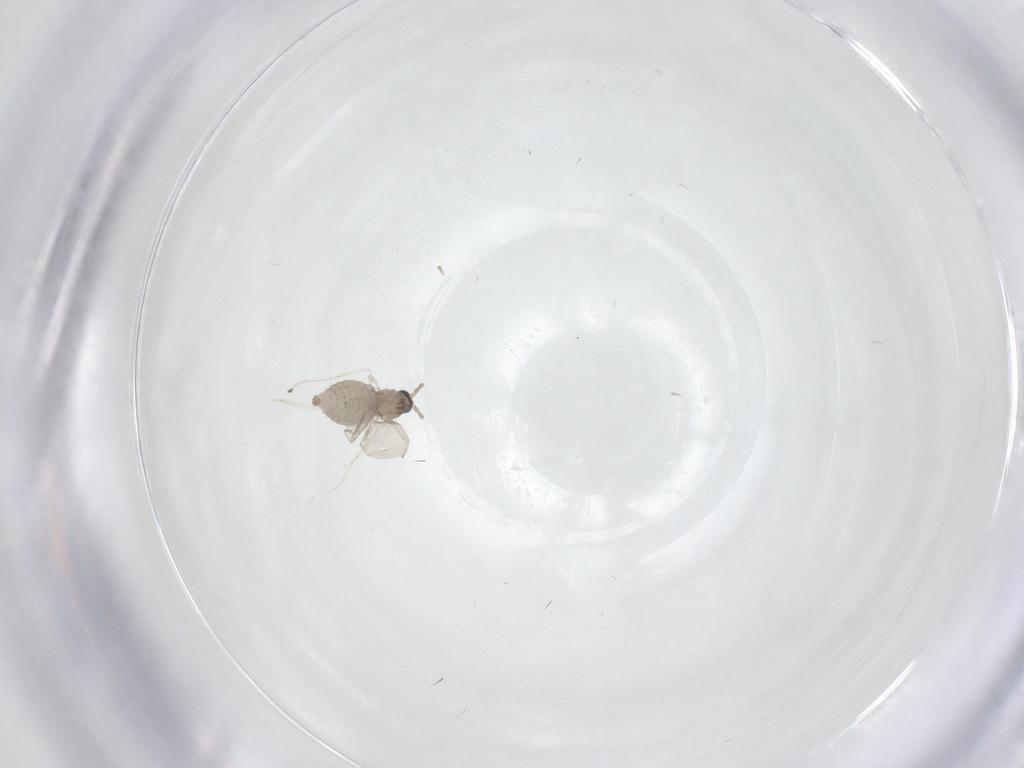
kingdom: Animalia
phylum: Arthropoda
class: Insecta
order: Diptera
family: Cecidomyiidae
